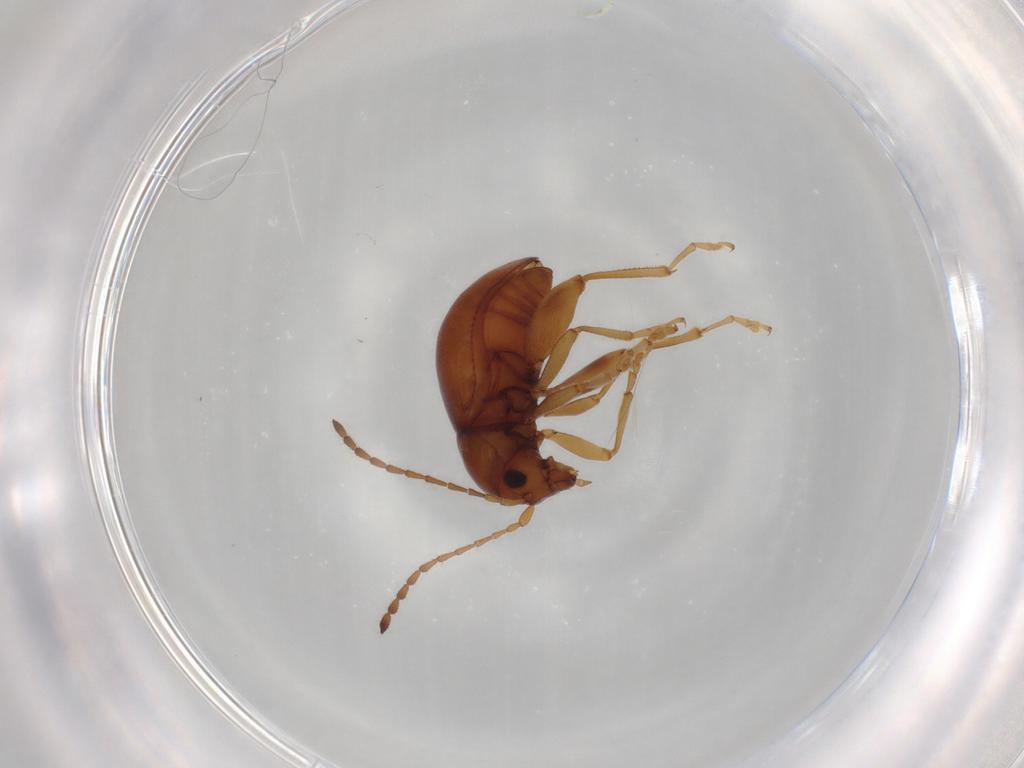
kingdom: Animalia
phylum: Arthropoda
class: Insecta
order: Coleoptera
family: Chrysomelidae
